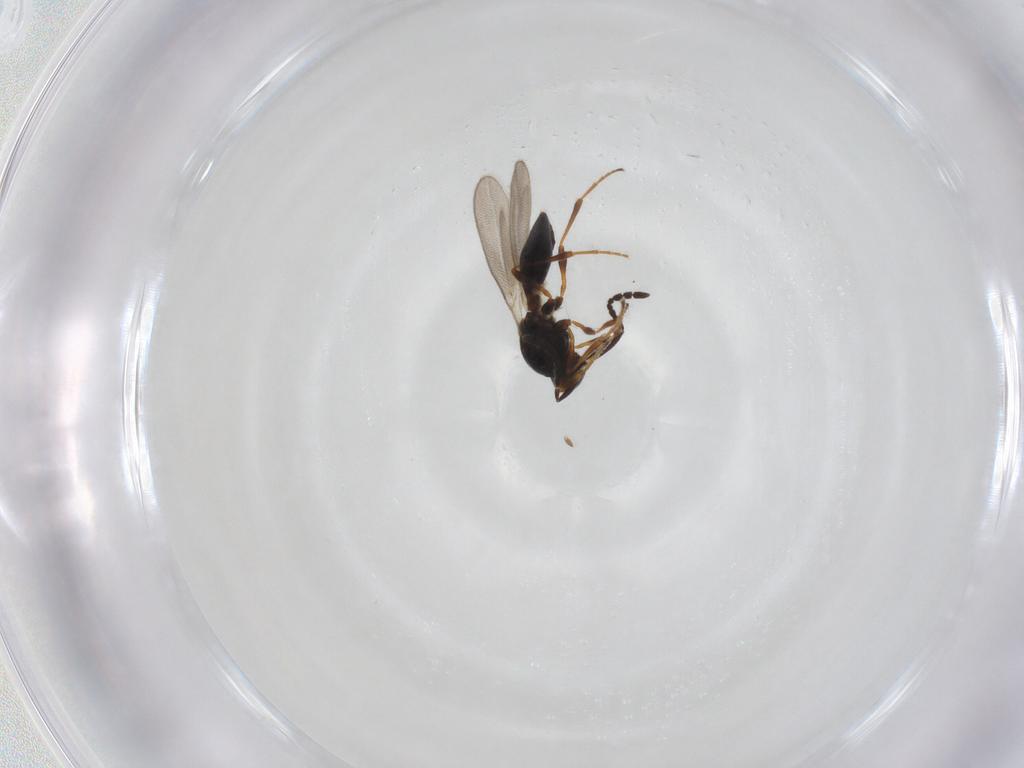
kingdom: Animalia
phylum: Arthropoda
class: Insecta
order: Hymenoptera
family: Platygastridae
